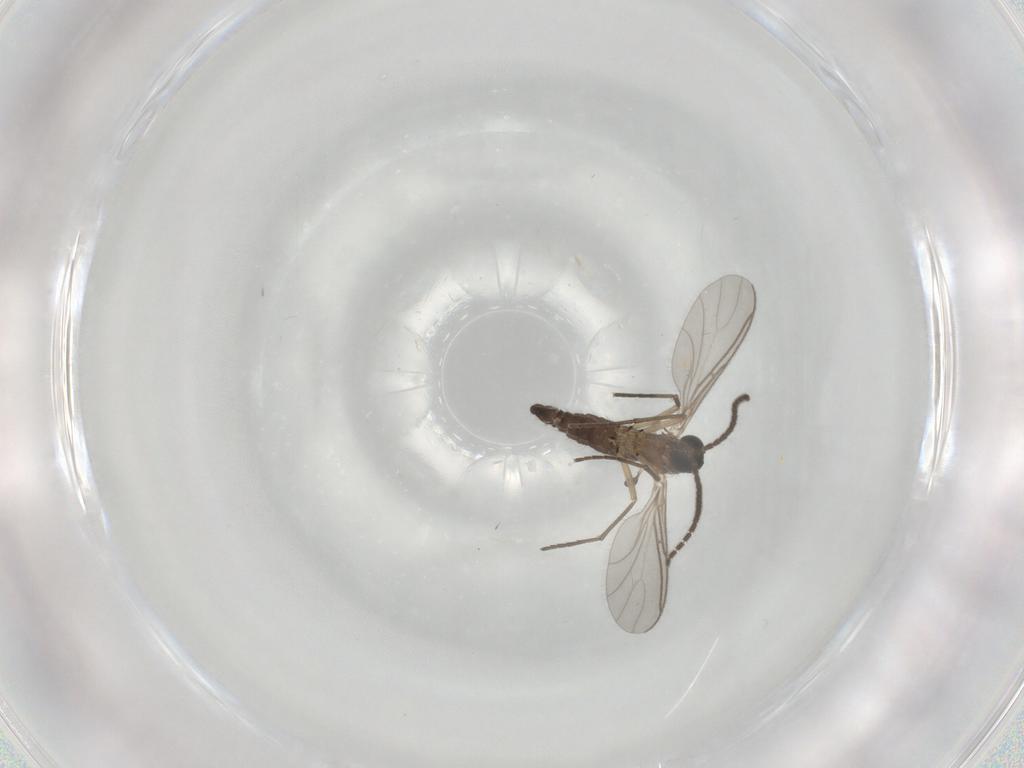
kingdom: Animalia
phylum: Arthropoda
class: Insecta
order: Diptera
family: Sciaridae
